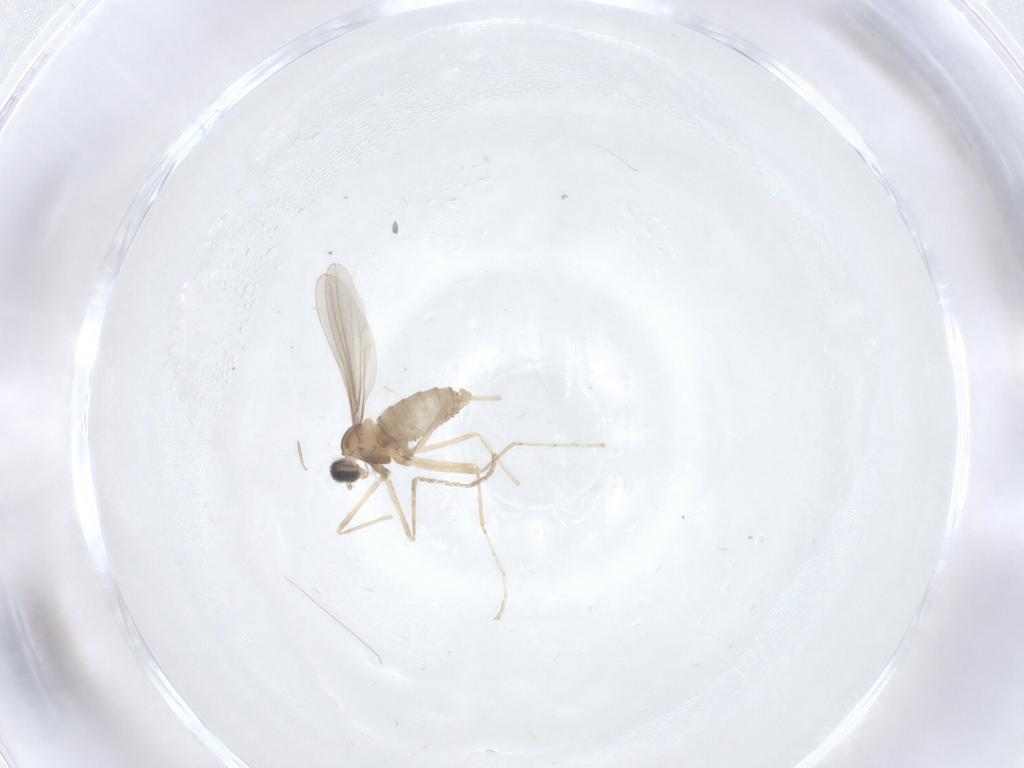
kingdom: Animalia
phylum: Arthropoda
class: Insecta
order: Diptera
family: Cecidomyiidae
